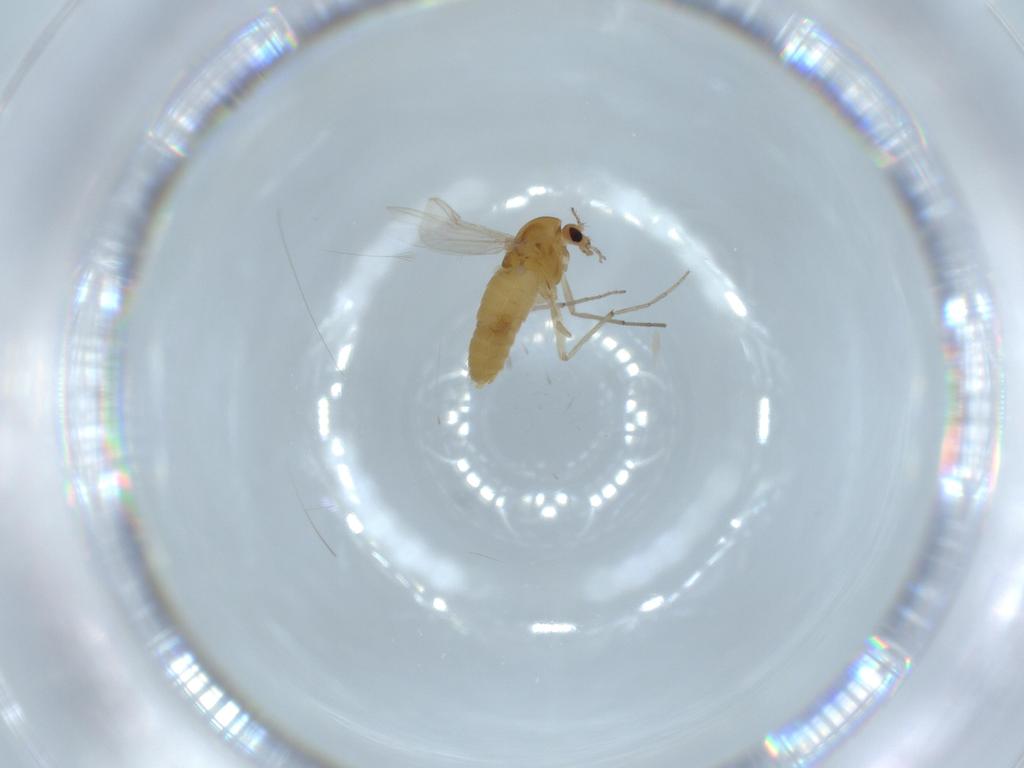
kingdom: Animalia
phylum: Arthropoda
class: Insecta
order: Diptera
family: Chironomidae
